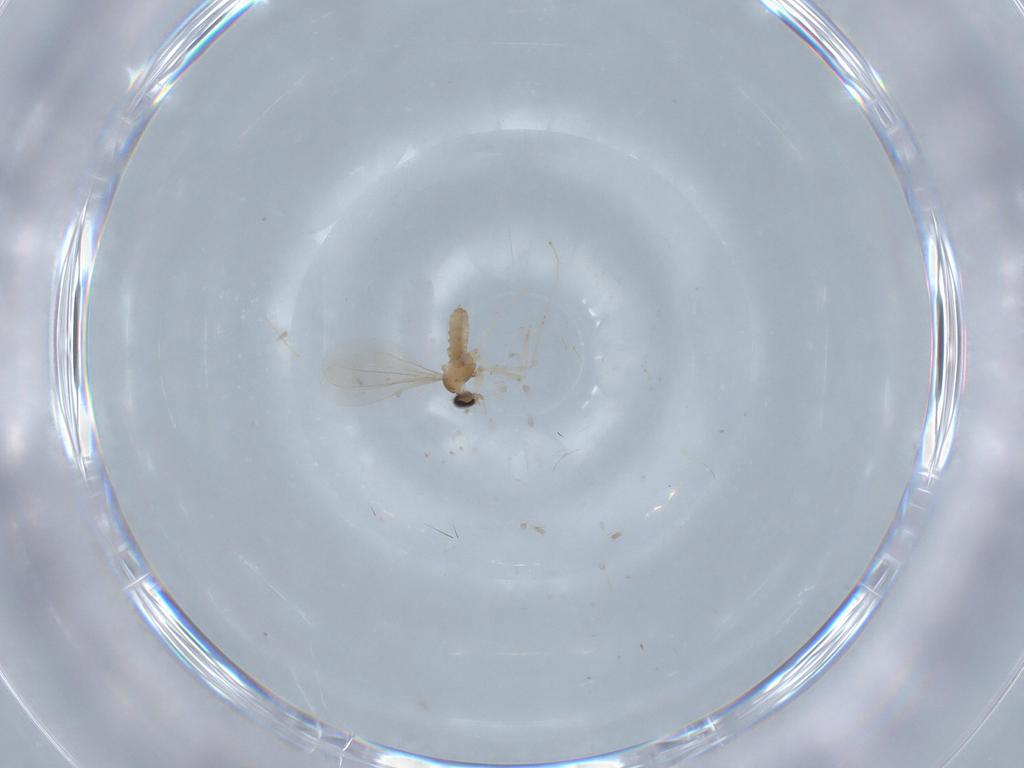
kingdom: Animalia
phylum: Arthropoda
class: Insecta
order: Diptera
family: Cecidomyiidae
